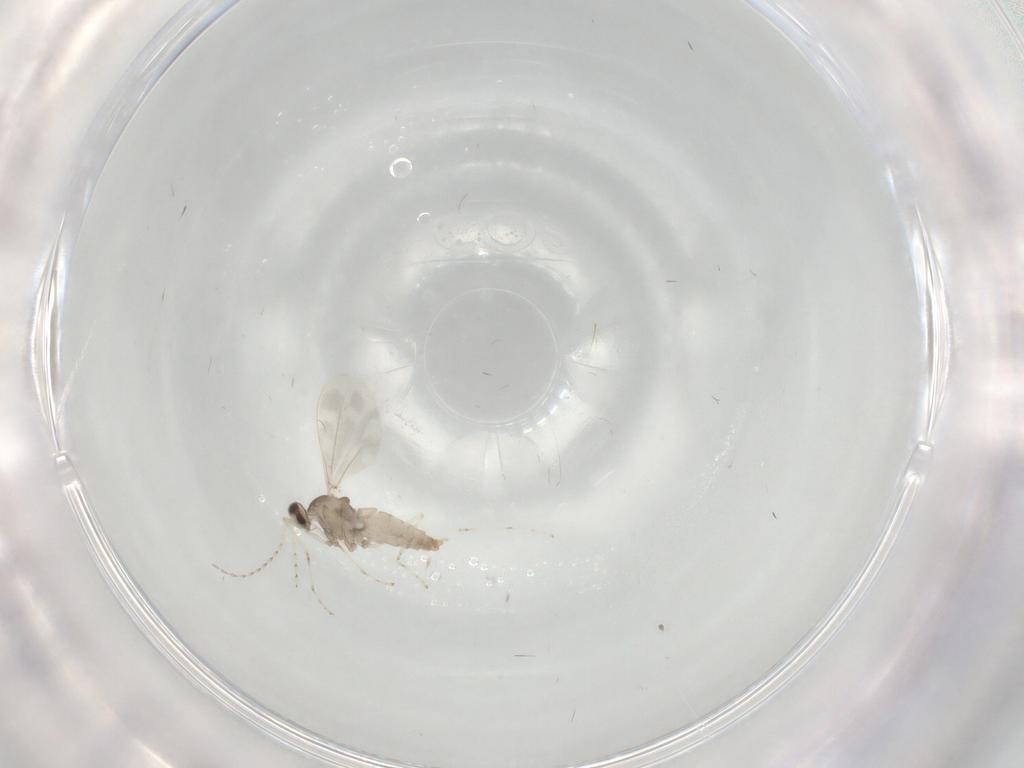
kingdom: Animalia
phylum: Arthropoda
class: Insecta
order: Diptera
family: Cecidomyiidae
